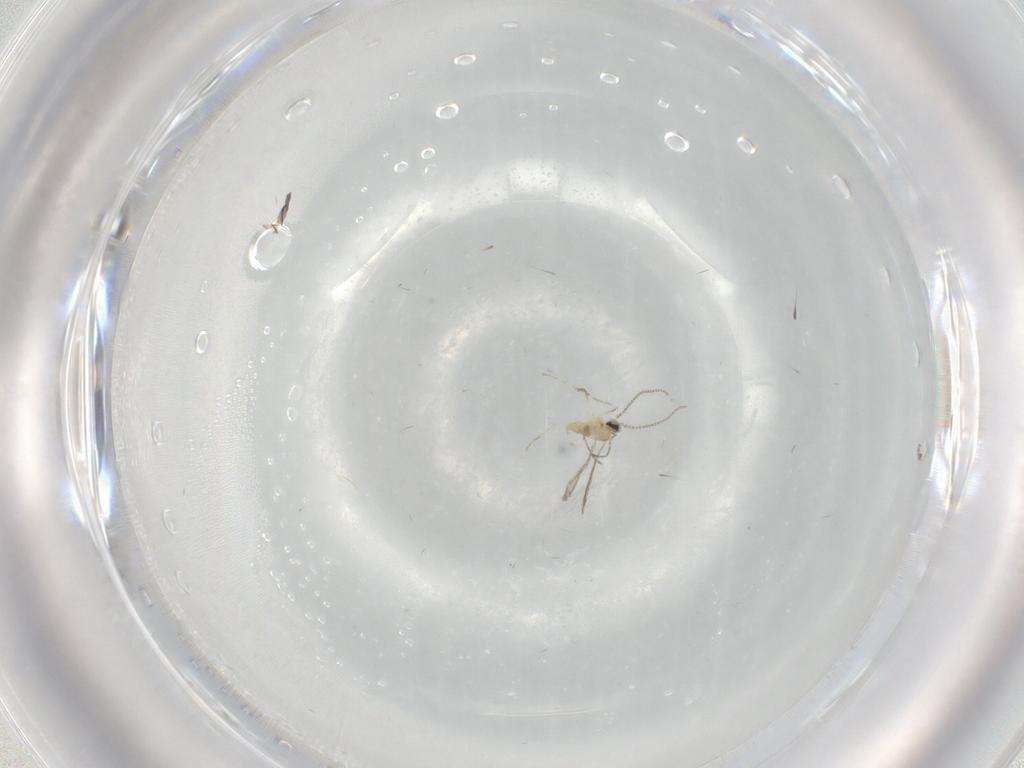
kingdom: Animalia
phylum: Arthropoda
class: Insecta
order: Diptera
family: Cecidomyiidae
